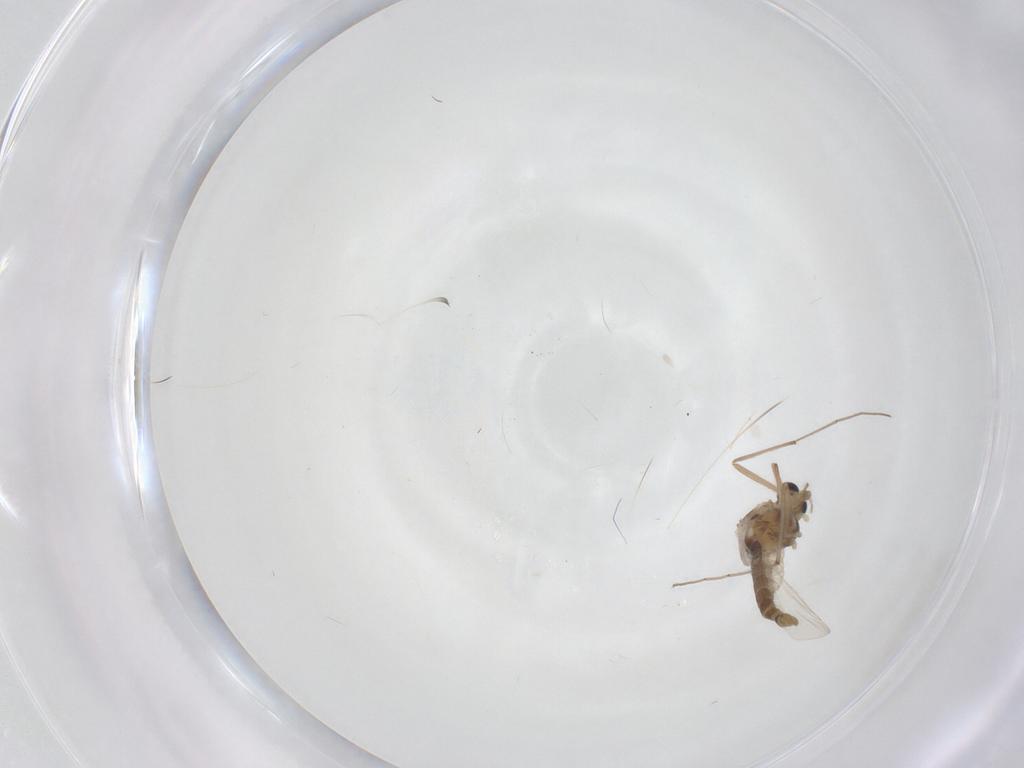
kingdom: Animalia
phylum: Arthropoda
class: Insecta
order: Diptera
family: Chironomidae
